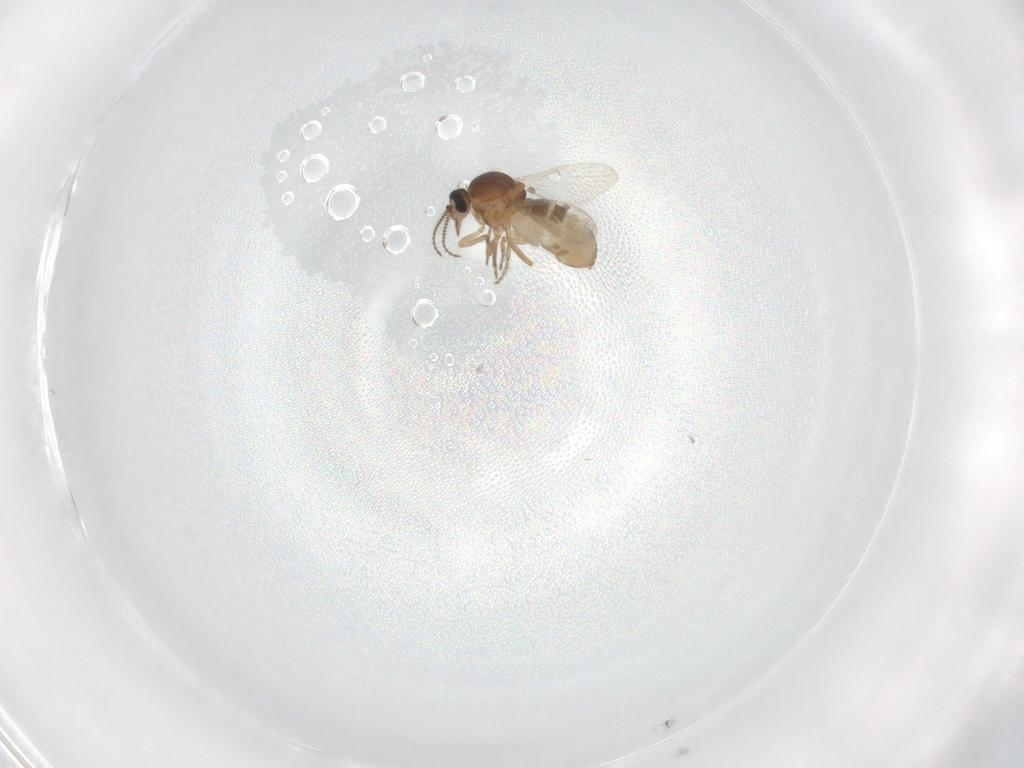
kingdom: Animalia
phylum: Arthropoda
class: Insecta
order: Diptera
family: Ceratopogonidae
